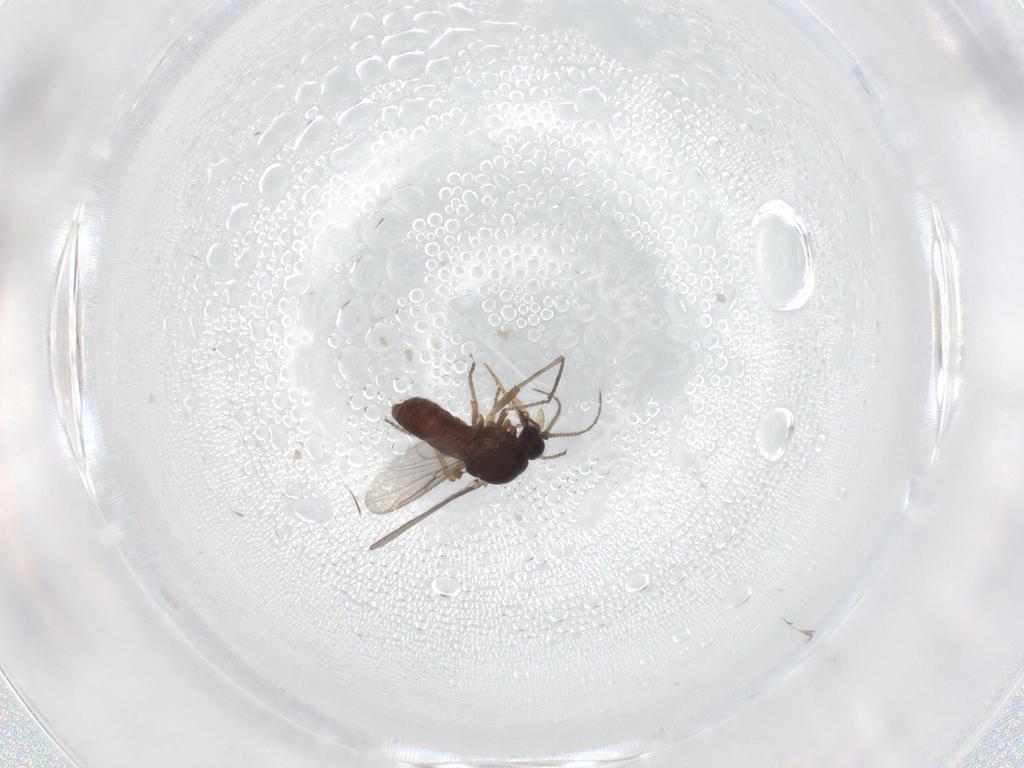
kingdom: Animalia
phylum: Arthropoda
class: Insecta
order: Diptera
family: Ceratopogonidae
